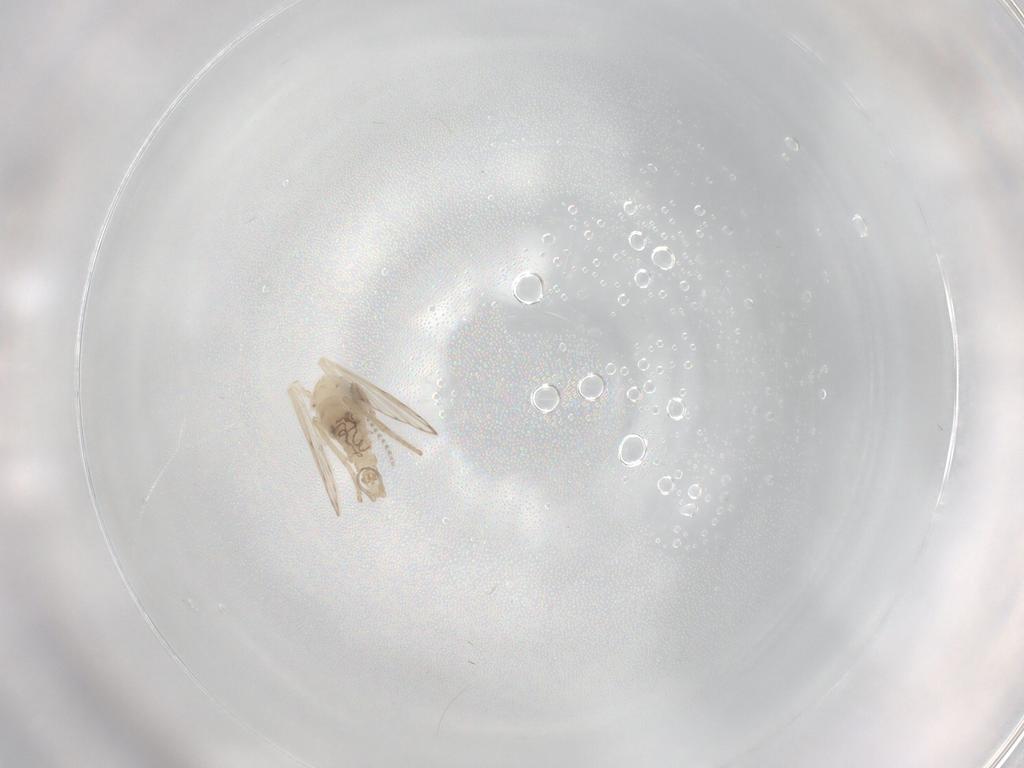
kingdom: Animalia
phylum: Arthropoda
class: Insecta
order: Diptera
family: Psychodidae
